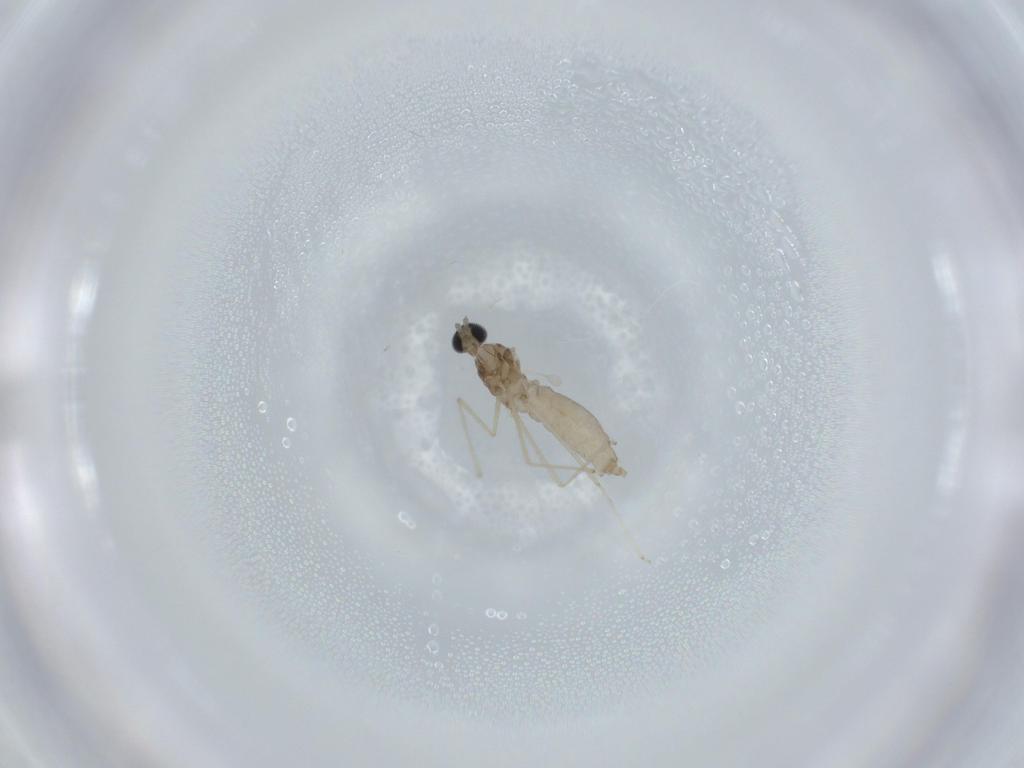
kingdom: Animalia
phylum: Arthropoda
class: Insecta
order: Diptera
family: Cecidomyiidae
